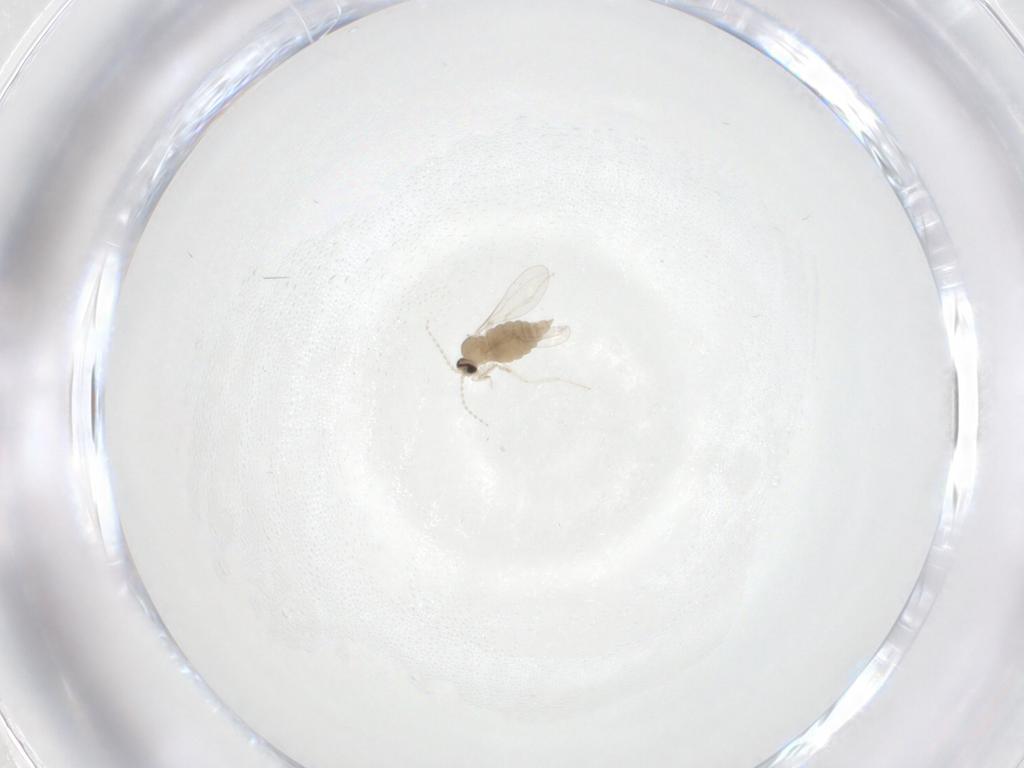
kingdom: Animalia
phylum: Arthropoda
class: Insecta
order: Diptera
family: Cecidomyiidae
